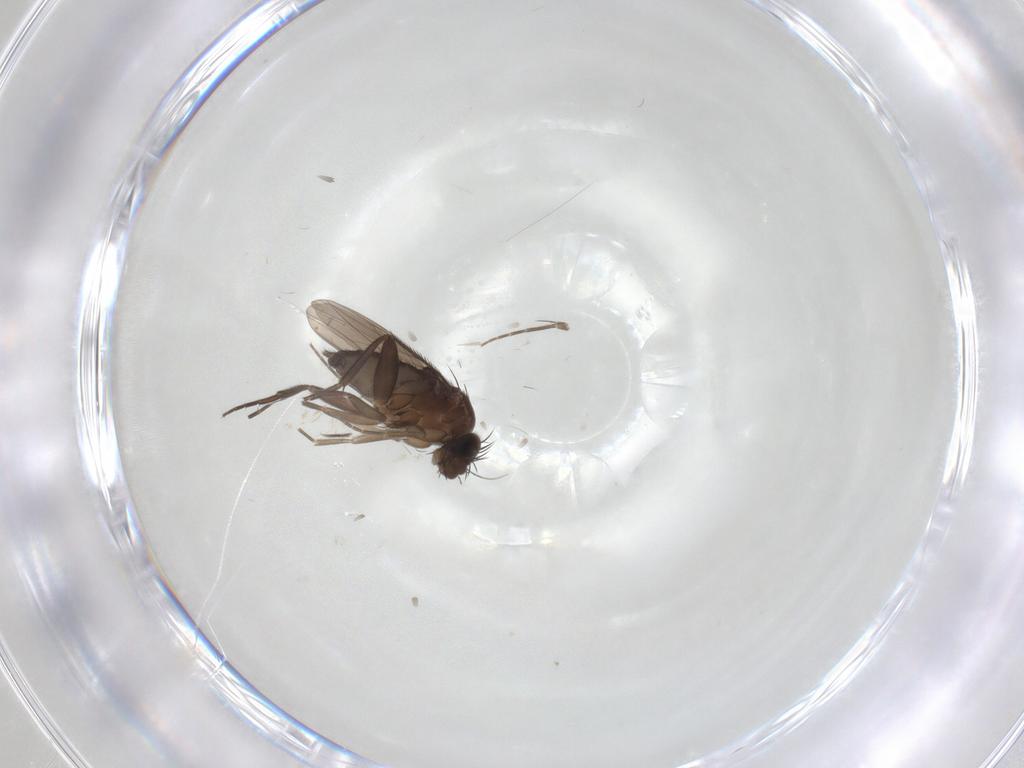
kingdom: Animalia
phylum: Arthropoda
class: Insecta
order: Diptera
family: Phoridae
